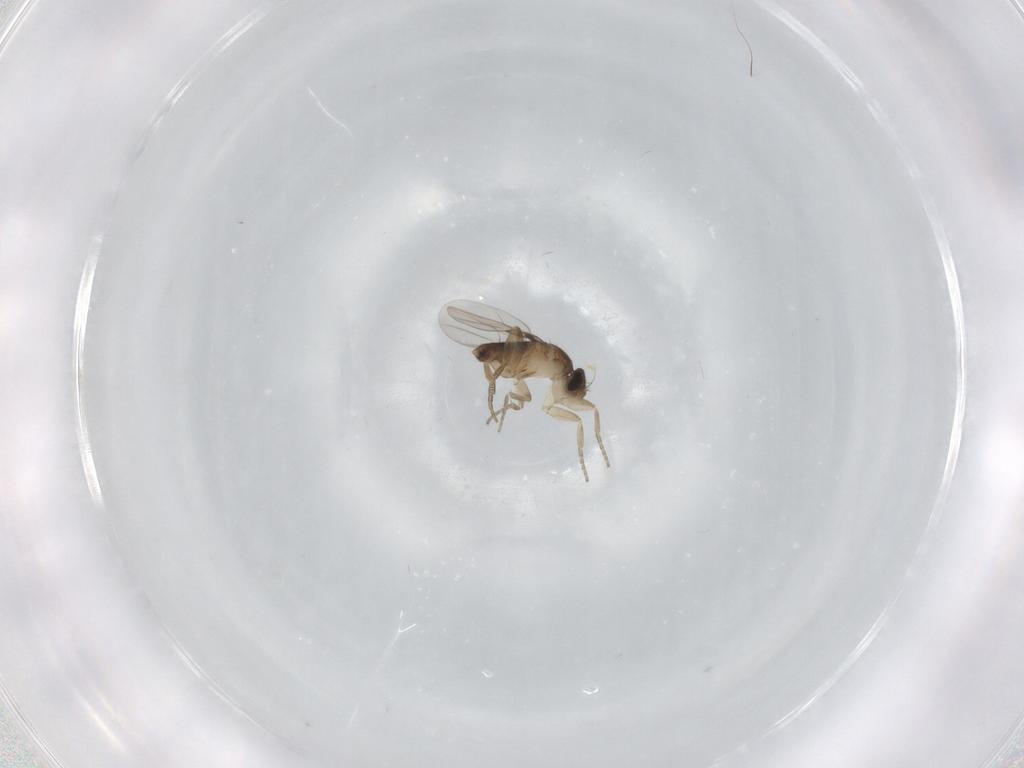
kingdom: Animalia
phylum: Arthropoda
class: Insecta
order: Diptera
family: Phoridae
